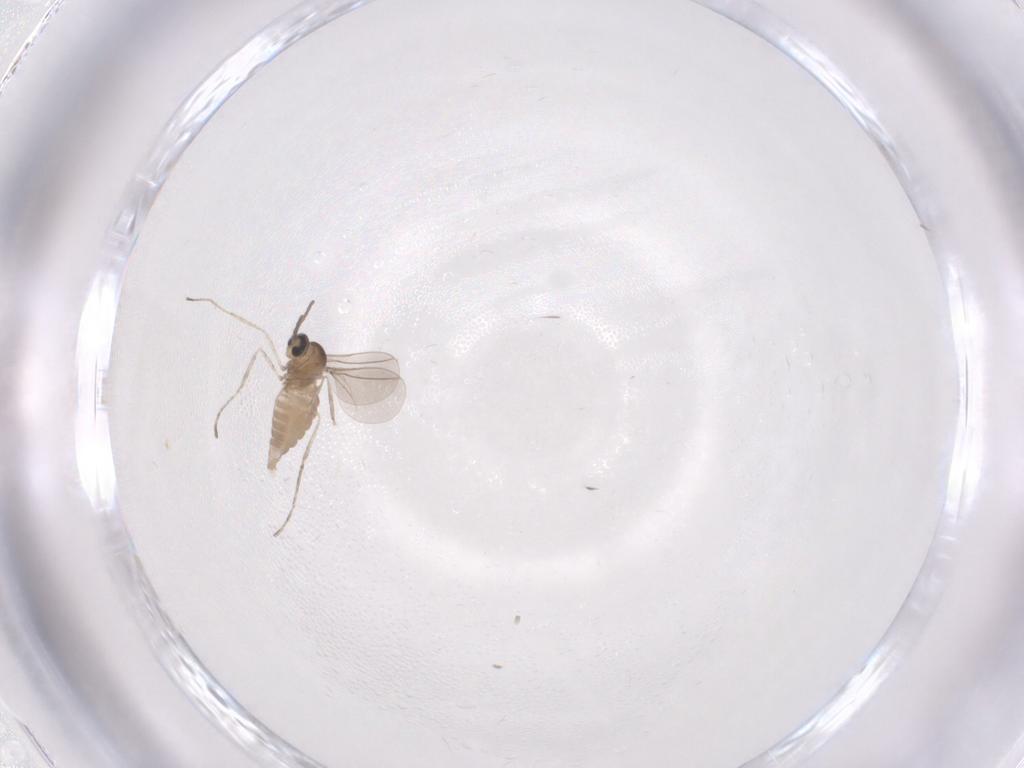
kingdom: Animalia
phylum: Arthropoda
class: Insecta
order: Diptera
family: Cecidomyiidae
